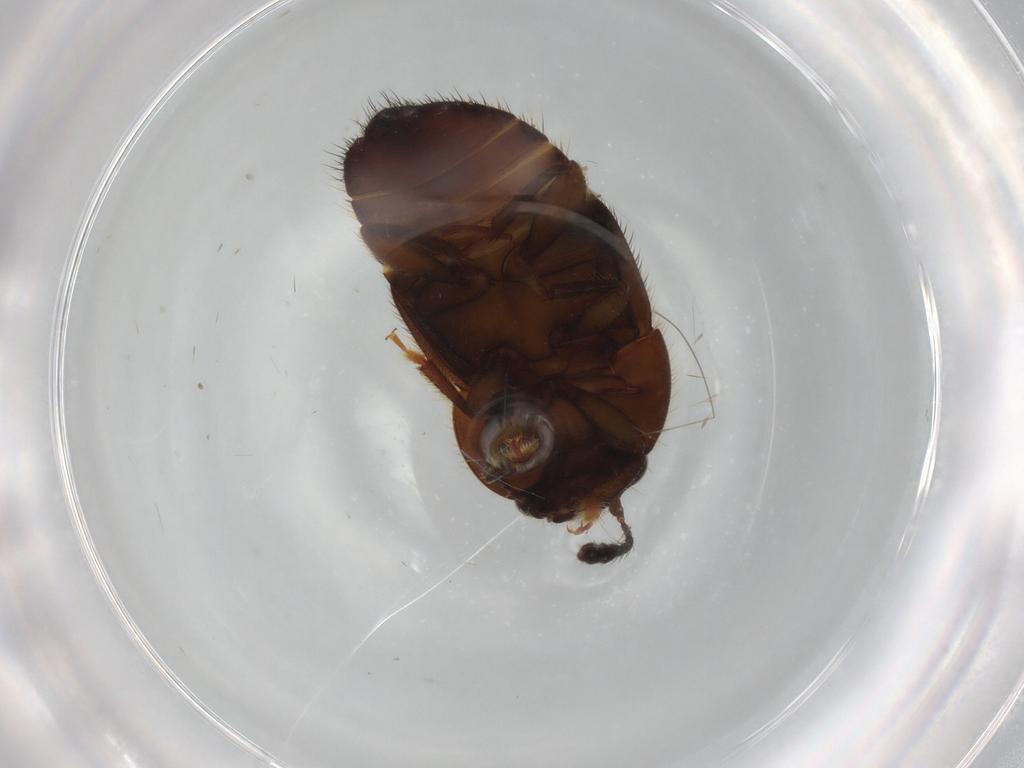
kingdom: Animalia
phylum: Arthropoda
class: Insecta
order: Coleoptera
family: Nitidulidae
